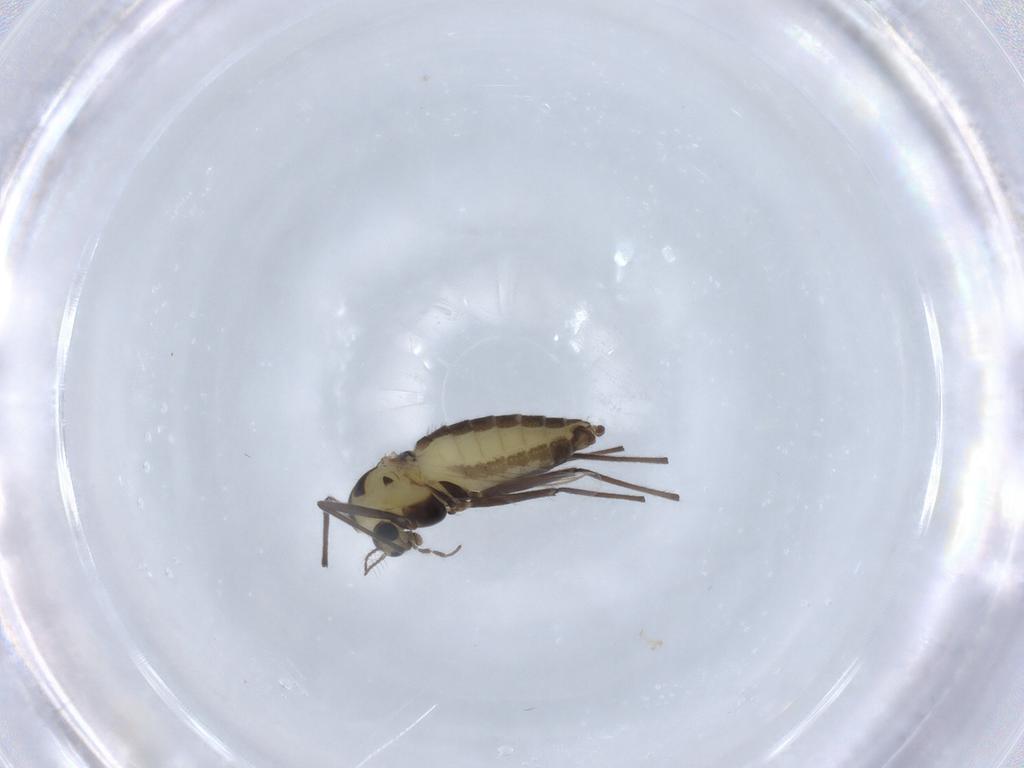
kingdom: Animalia
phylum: Arthropoda
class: Insecta
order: Diptera
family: Chironomidae
